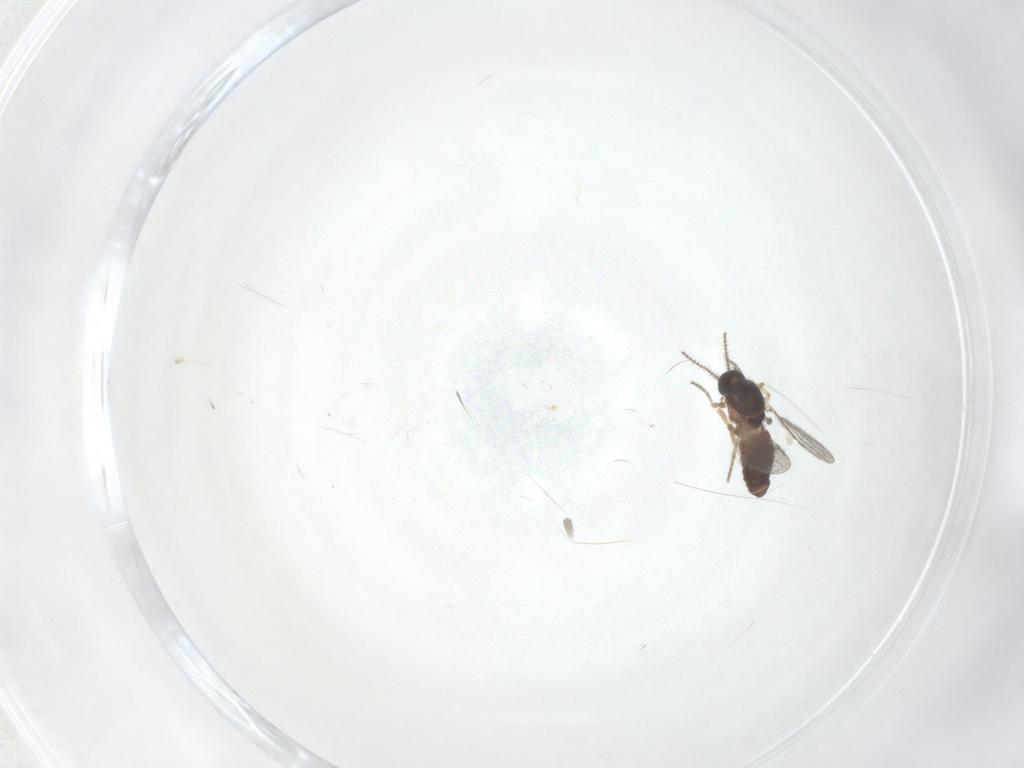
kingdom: Animalia
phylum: Arthropoda
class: Insecta
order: Diptera
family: Ceratopogonidae
